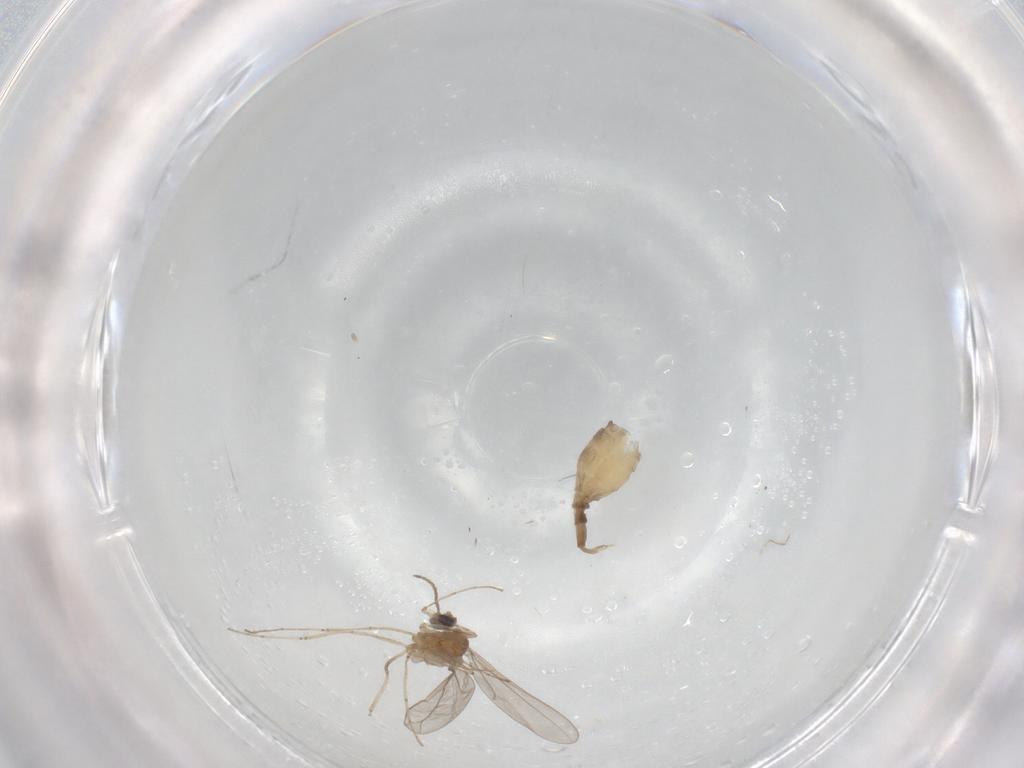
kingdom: Animalia
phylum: Arthropoda
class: Insecta
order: Diptera
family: Cecidomyiidae
